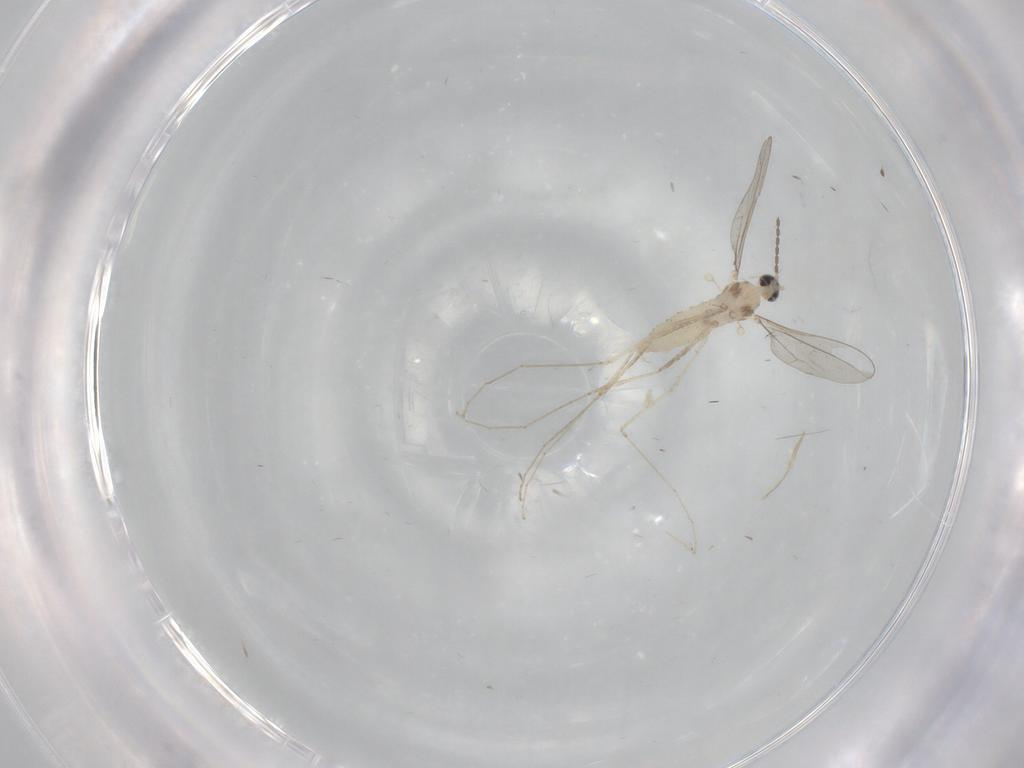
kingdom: Animalia
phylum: Arthropoda
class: Insecta
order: Diptera
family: Cecidomyiidae
